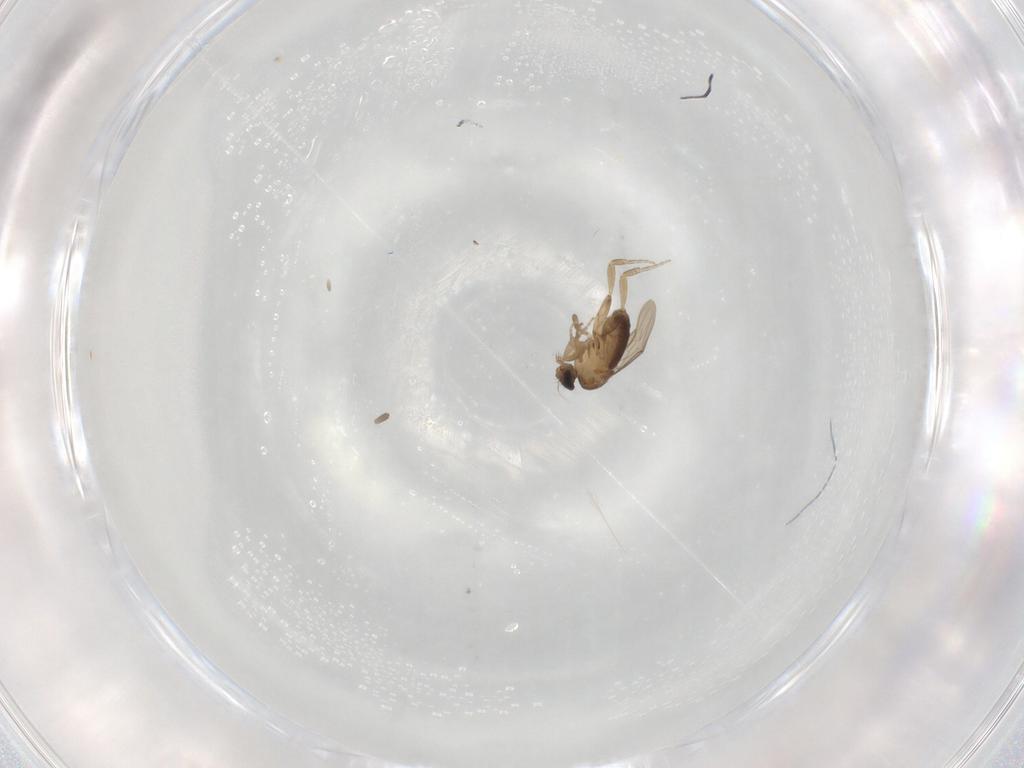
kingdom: Animalia
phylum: Arthropoda
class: Insecta
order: Diptera
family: Phoridae
